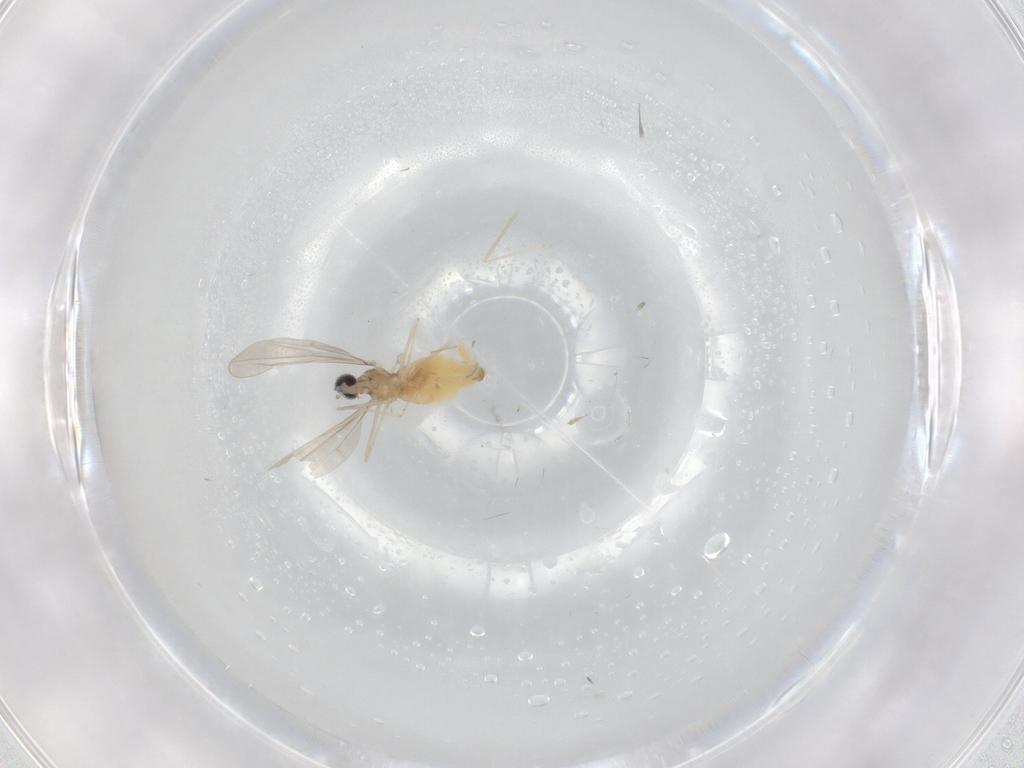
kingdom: Animalia
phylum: Arthropoda
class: Insecta
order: Diptera
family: Cecidomyiidae
